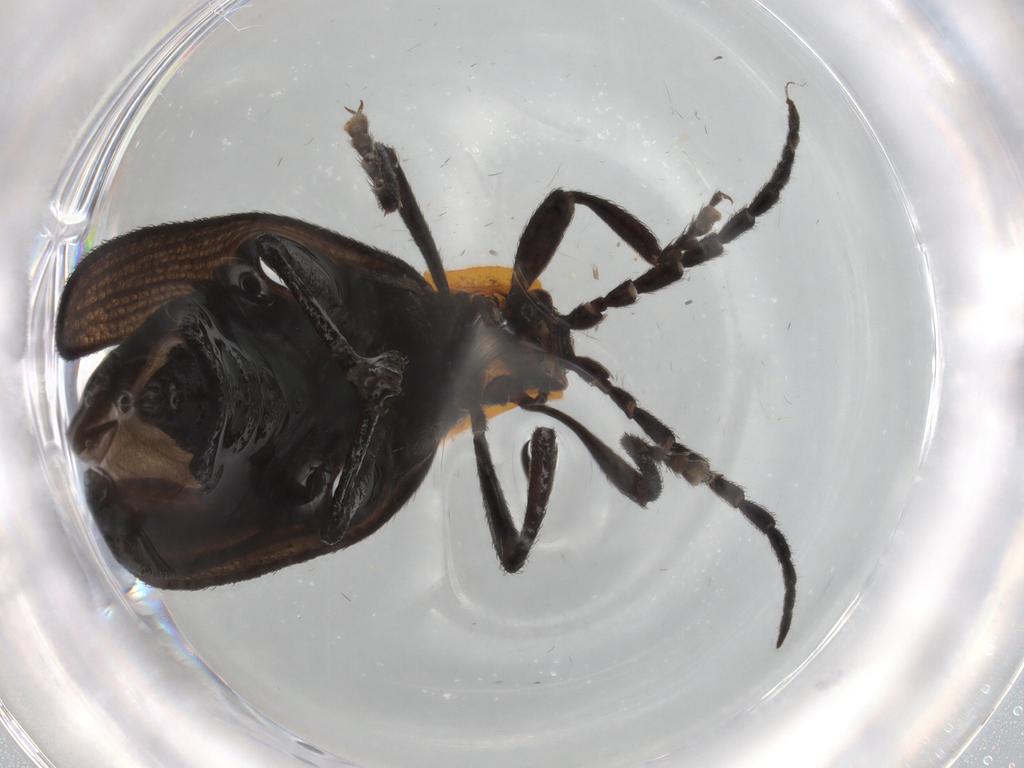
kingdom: Animalia
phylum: Arthropoda
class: Insecta
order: Coleoptera
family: Lycidae
